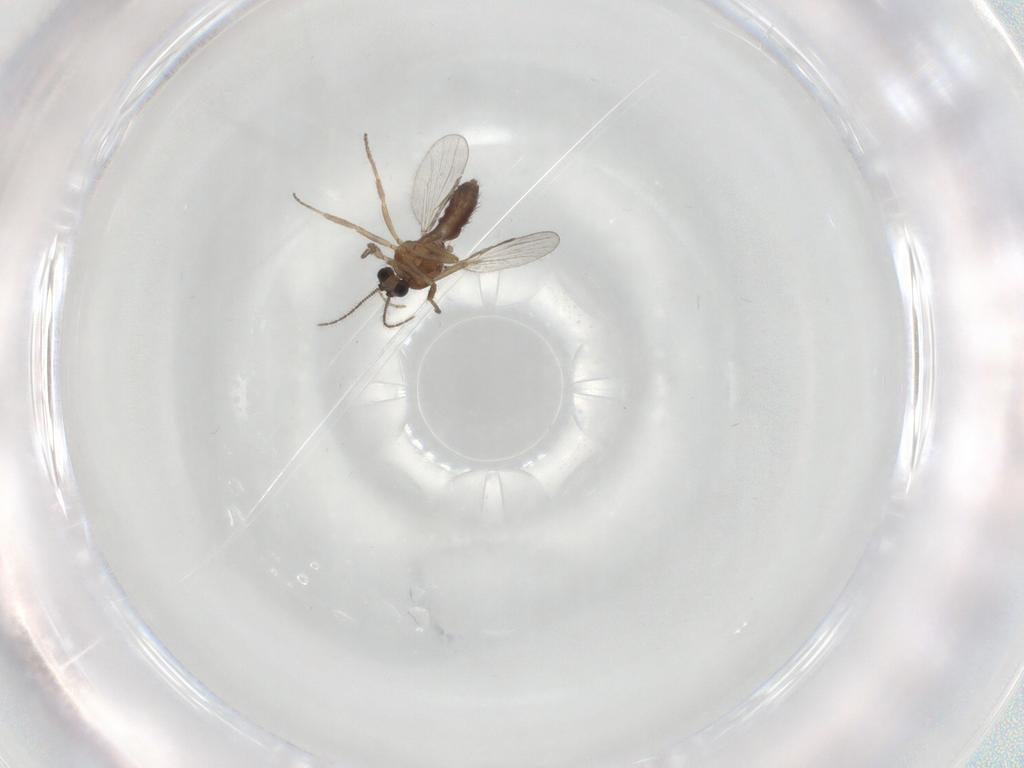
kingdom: Animalia
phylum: Arthropoda
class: Insecta
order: Diptera
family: Ceratopogonidae
